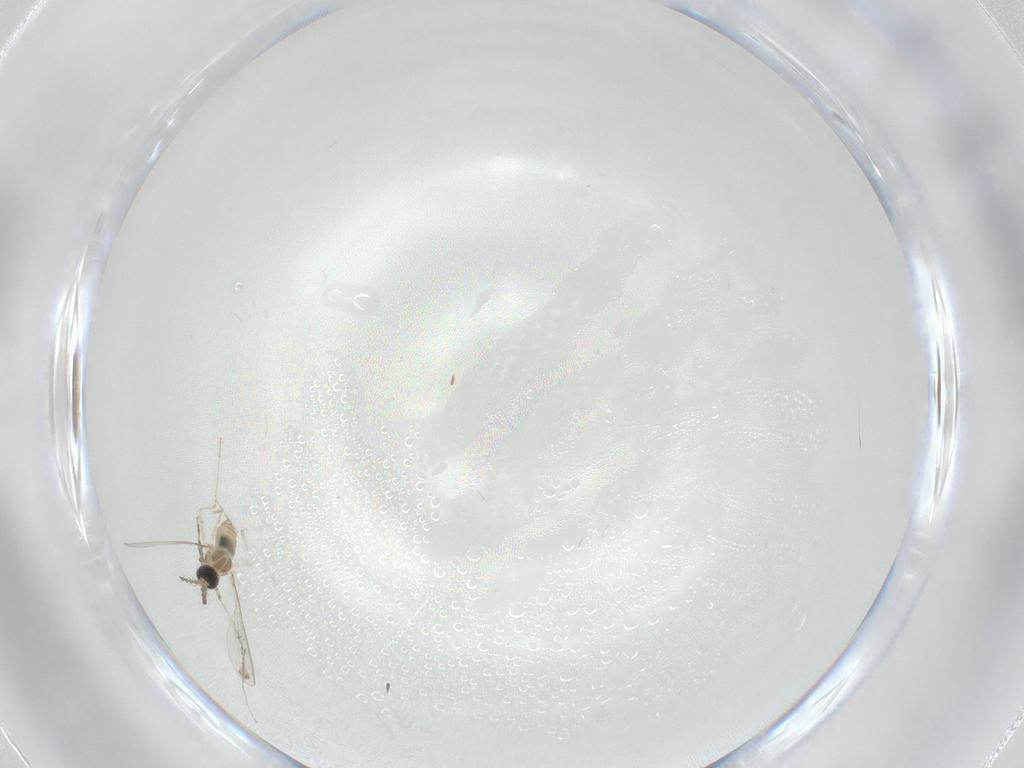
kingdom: Animalia
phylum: Arthropoda
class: Insecta
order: Diptera
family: Cecidomyiidae
